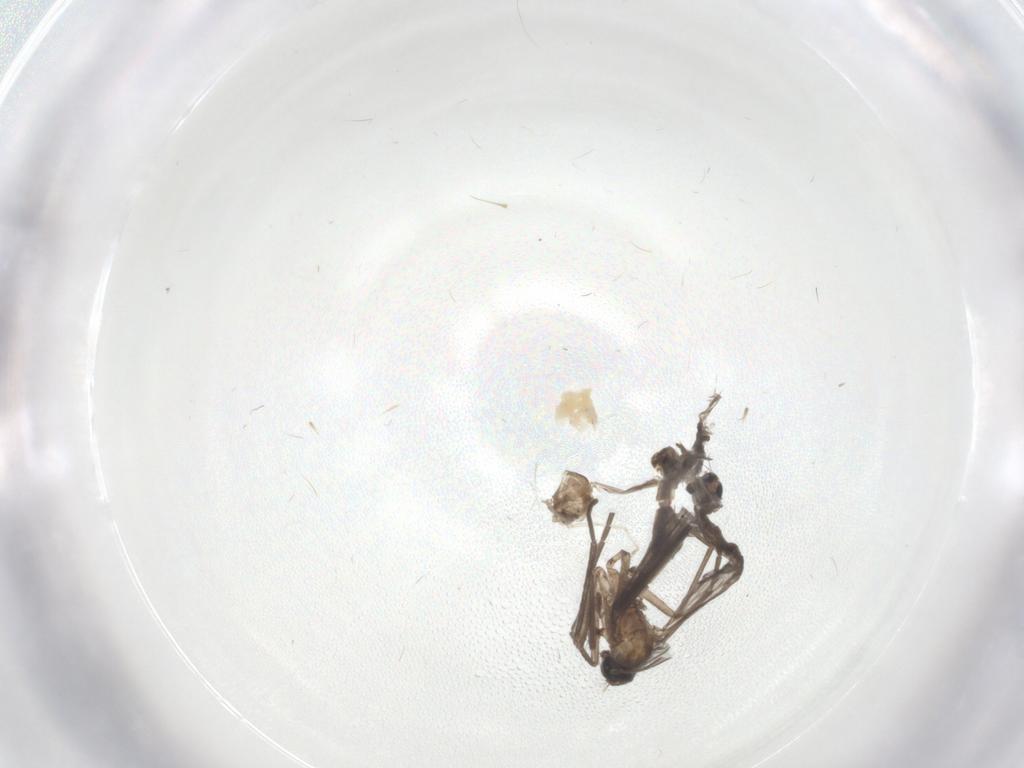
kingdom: Animalia
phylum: Arthropoda
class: Insecta
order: Diptera
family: Sciaridae
